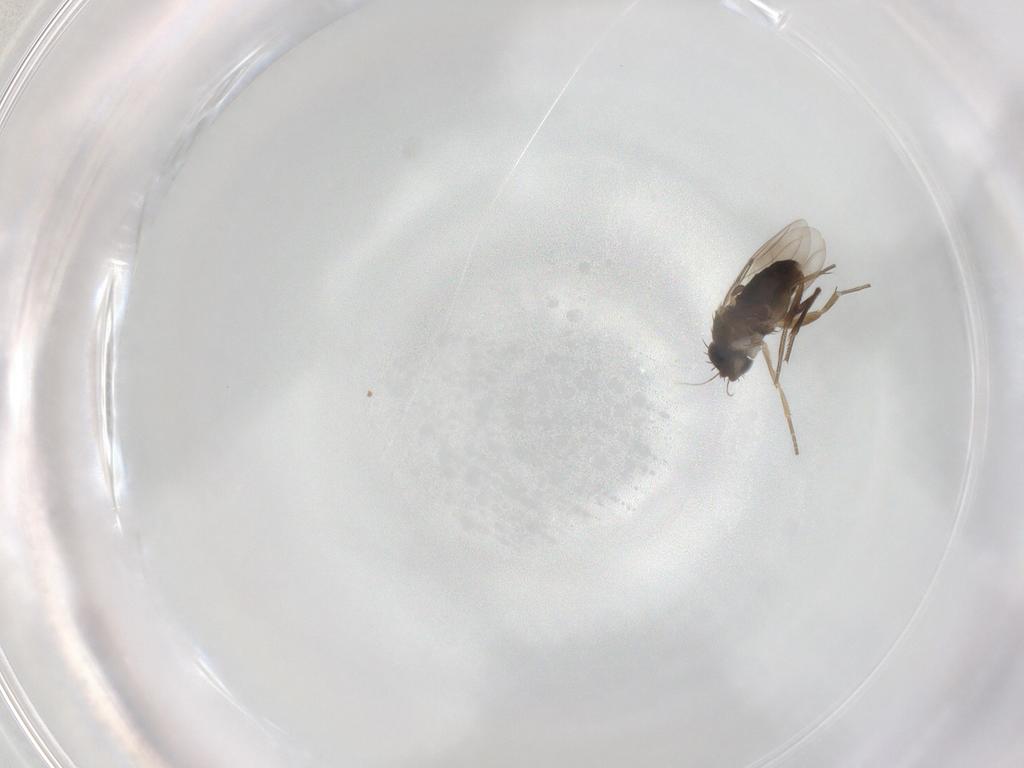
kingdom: Animalia
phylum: Arthropoda
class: Insecta
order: Diptera
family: Phoridae
